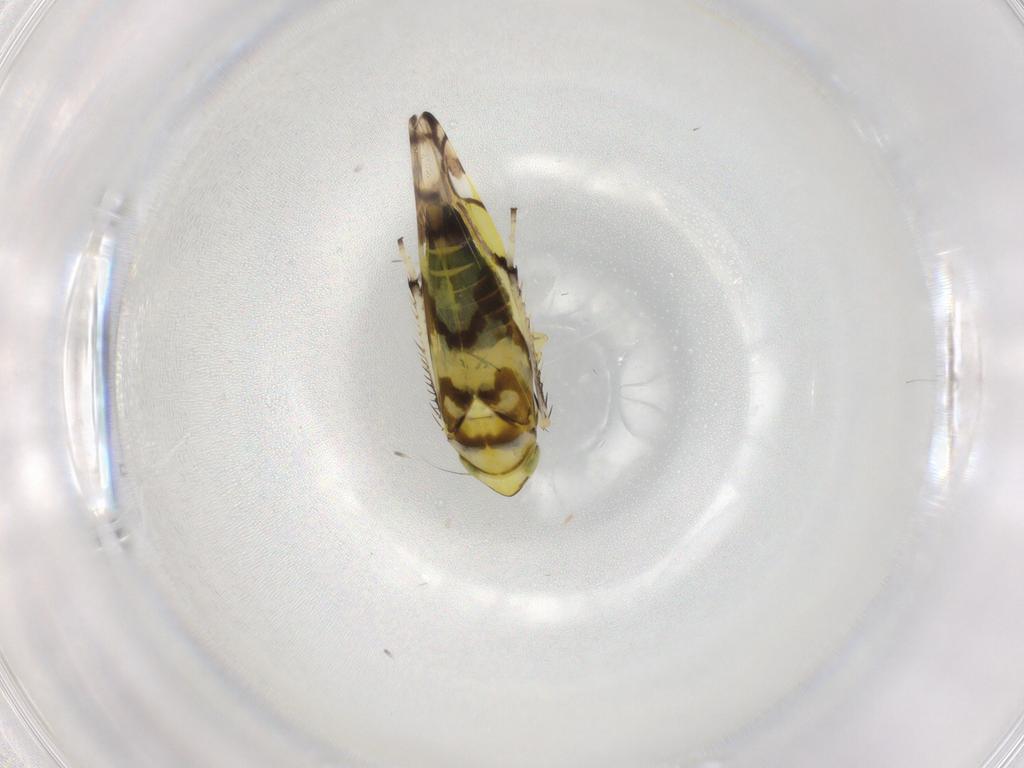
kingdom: Animalia
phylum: Arthropoda
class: Insecta
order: Hemiptera
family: Cicadellidae
